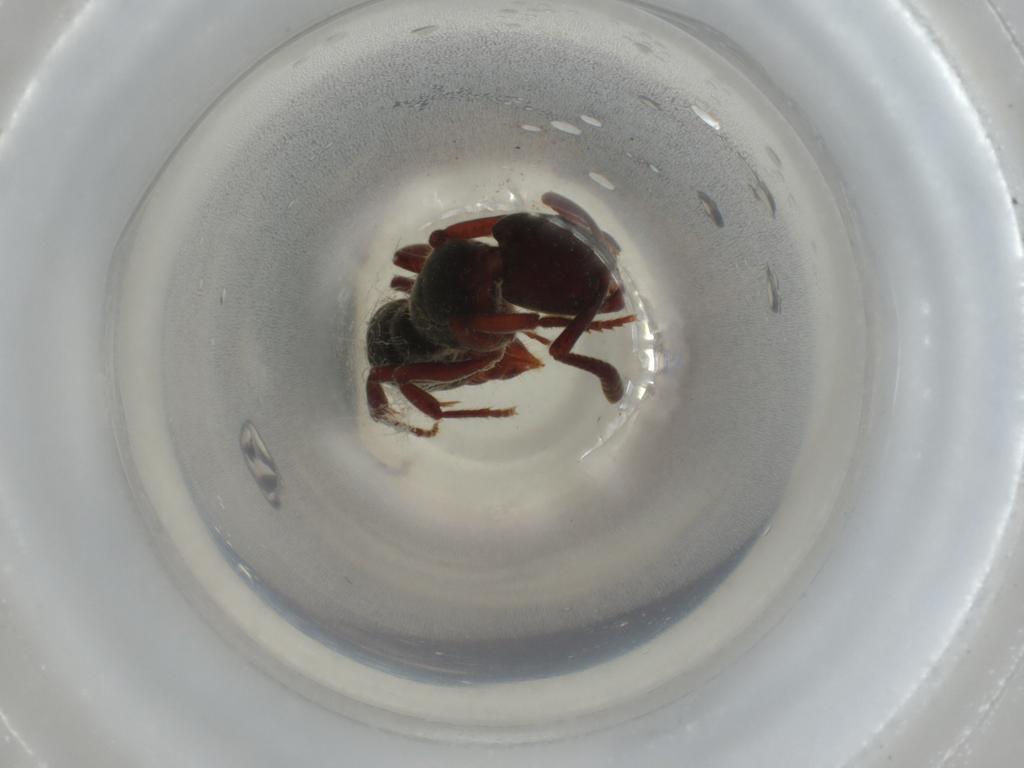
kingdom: Animalia
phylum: Arthropoda
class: Insecta
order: Hymenoptera
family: Formicidae
